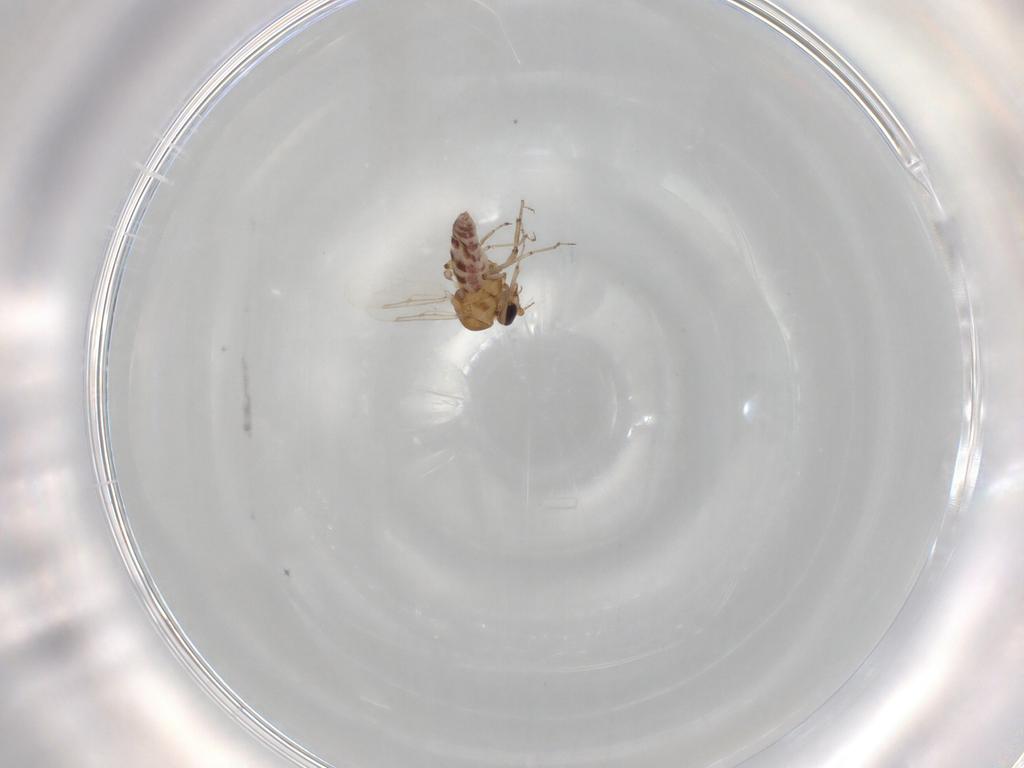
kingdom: Animalia
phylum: Arthropoda
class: Insecta
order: Diptera
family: Ceratopogonidae
